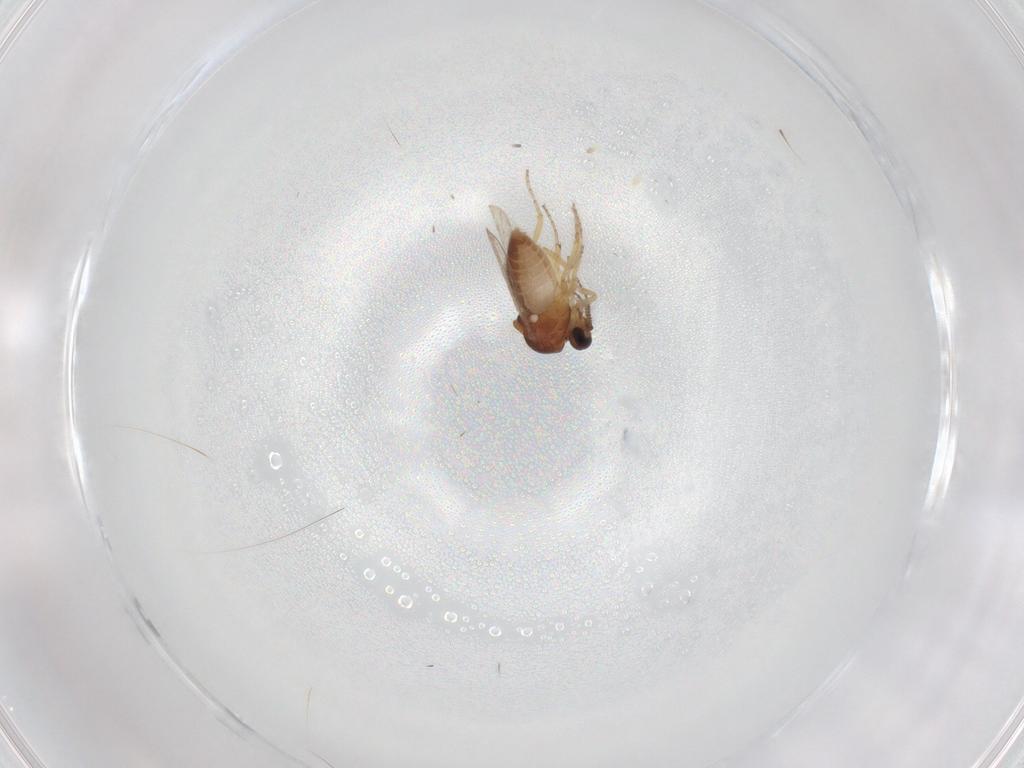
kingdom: Animalia
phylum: Arthropoda
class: Insecta
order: Diptera
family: Ceratopogonidae
